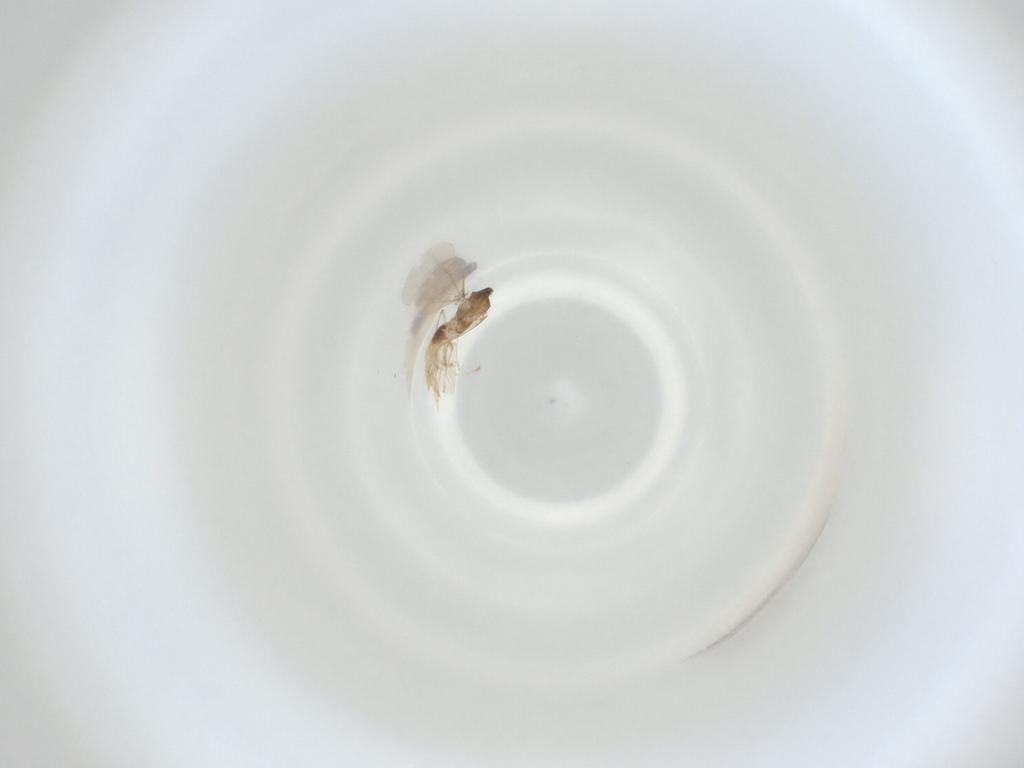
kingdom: Animalia
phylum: Arthropoda
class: Insecta
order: Diptera
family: Cecidomyiidae
